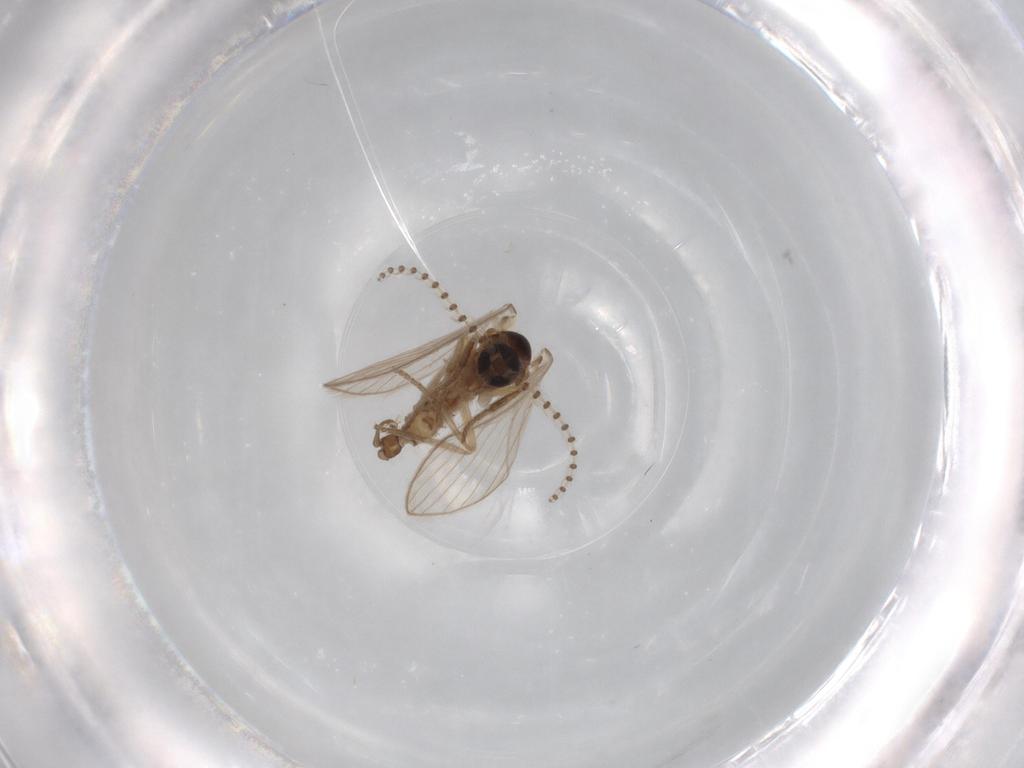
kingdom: Animalia
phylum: Arthropoda
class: Insecta
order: Diptera
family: Psychodidae
